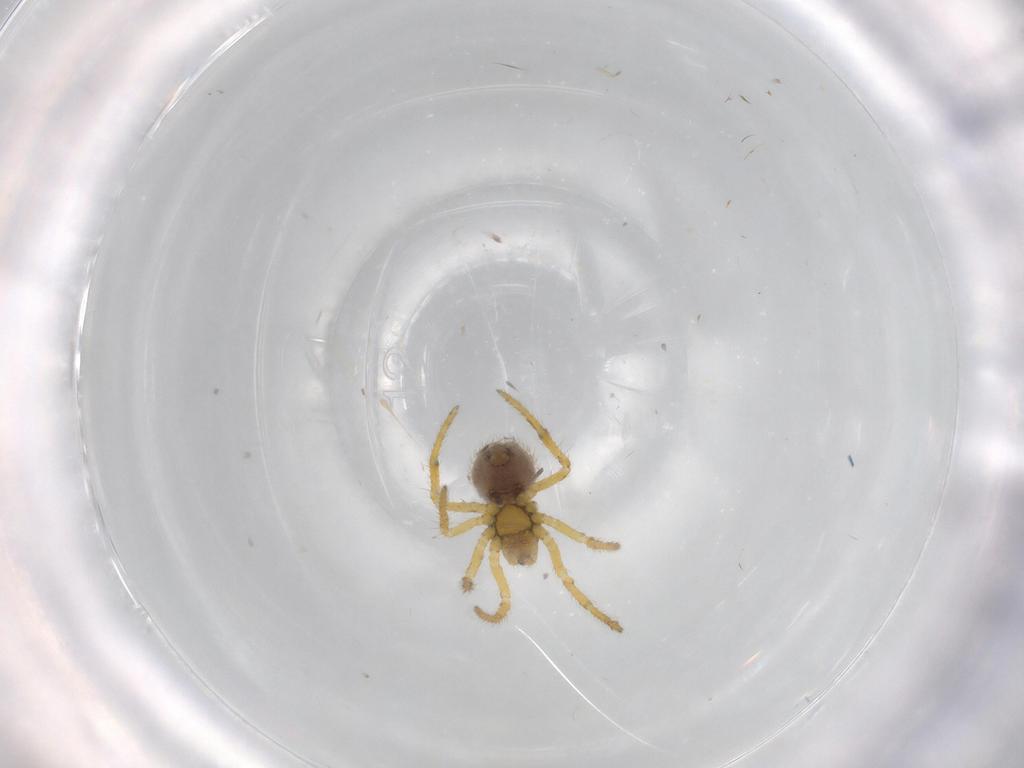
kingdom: Animalia
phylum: Arthropoda
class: Arachnida
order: Araneae
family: Theridiidae
